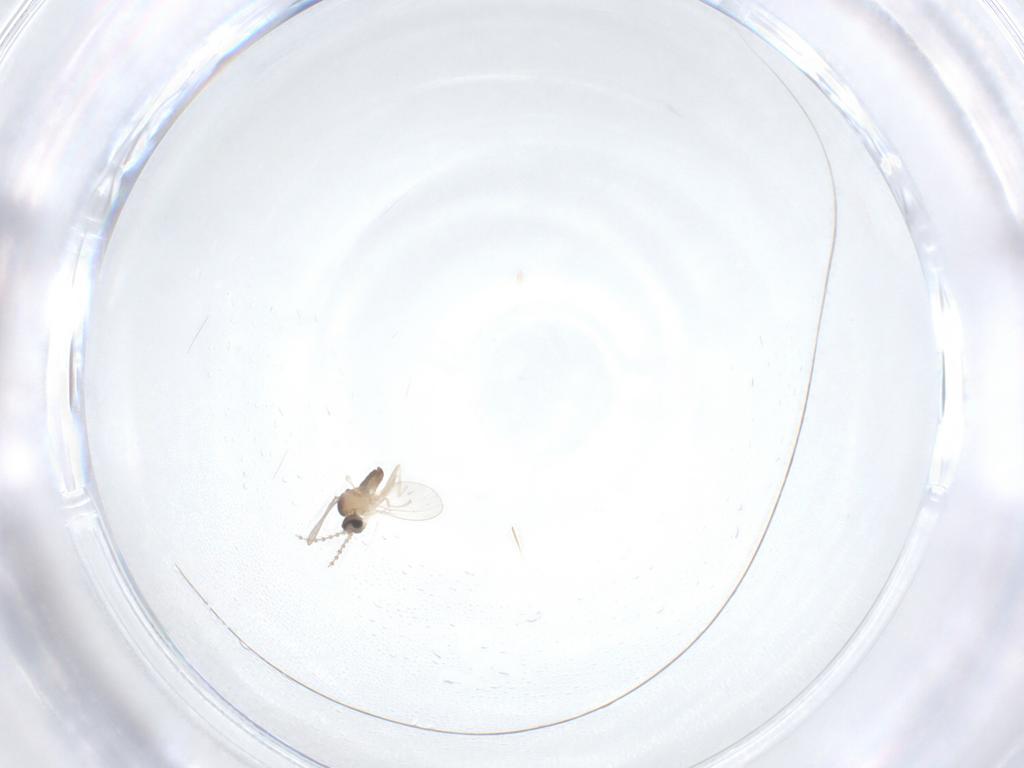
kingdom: Animalia
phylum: Arthropoda
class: Insecta
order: Diptera
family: Cecidomyiidae
